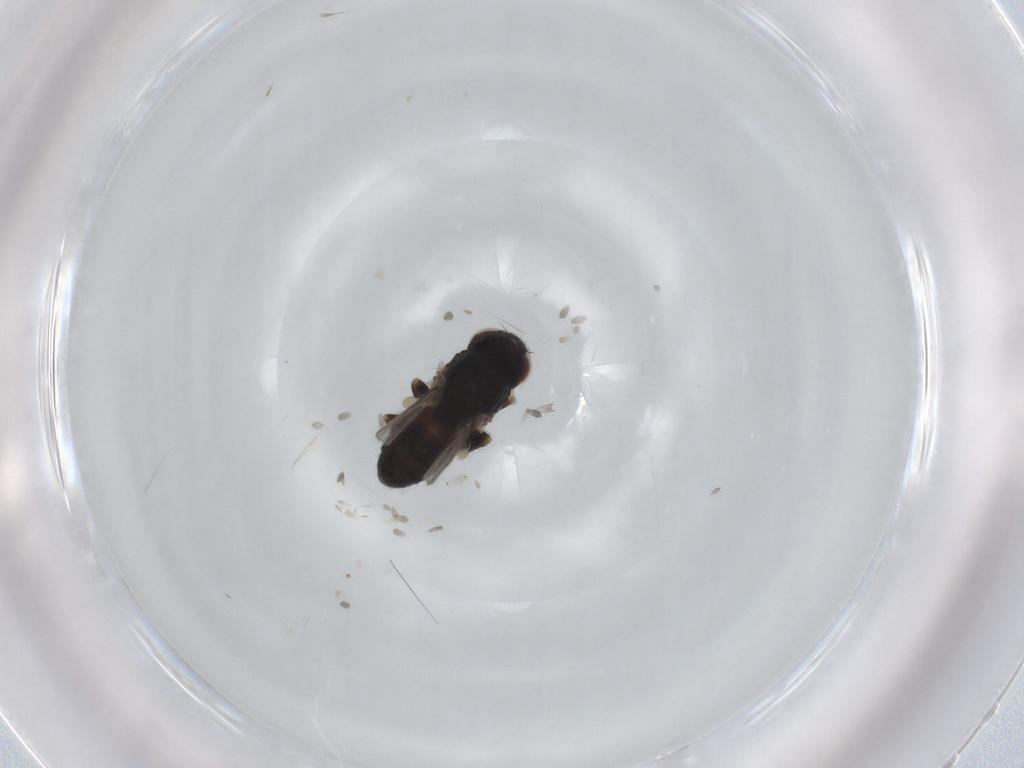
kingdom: Animalia
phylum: Arthropoda
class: Insecta
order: Diptera
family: Chloropidae
